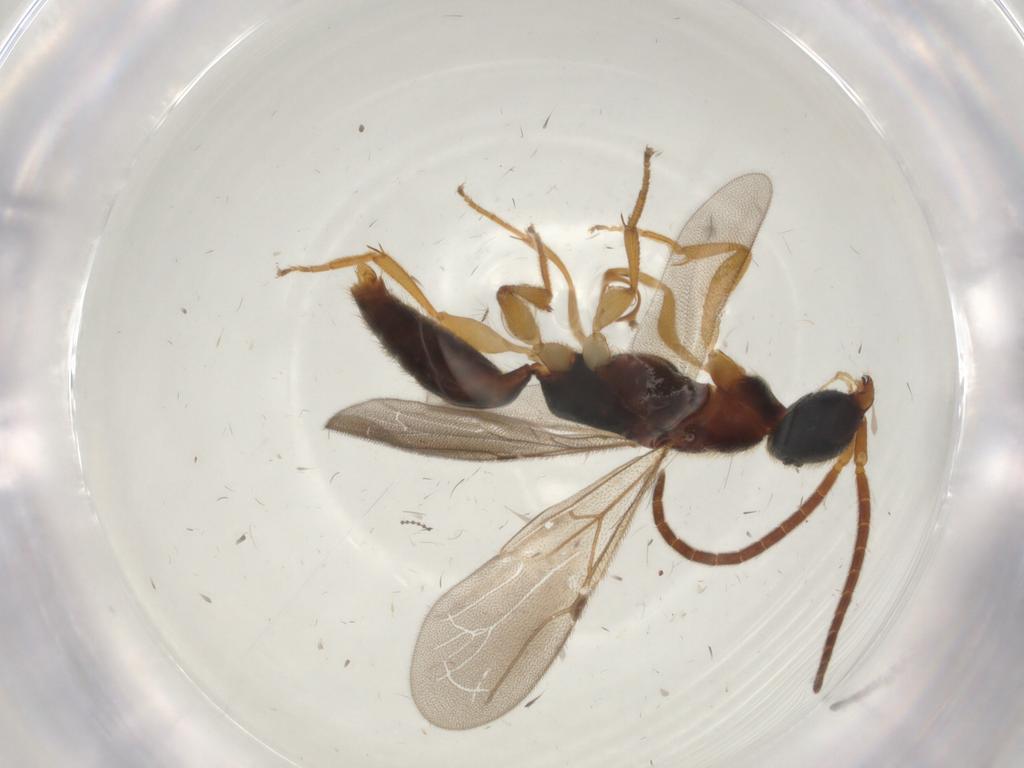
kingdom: Animalia
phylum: Arthropoda
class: Insecta
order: Hymenoptera
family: Bethylidae
